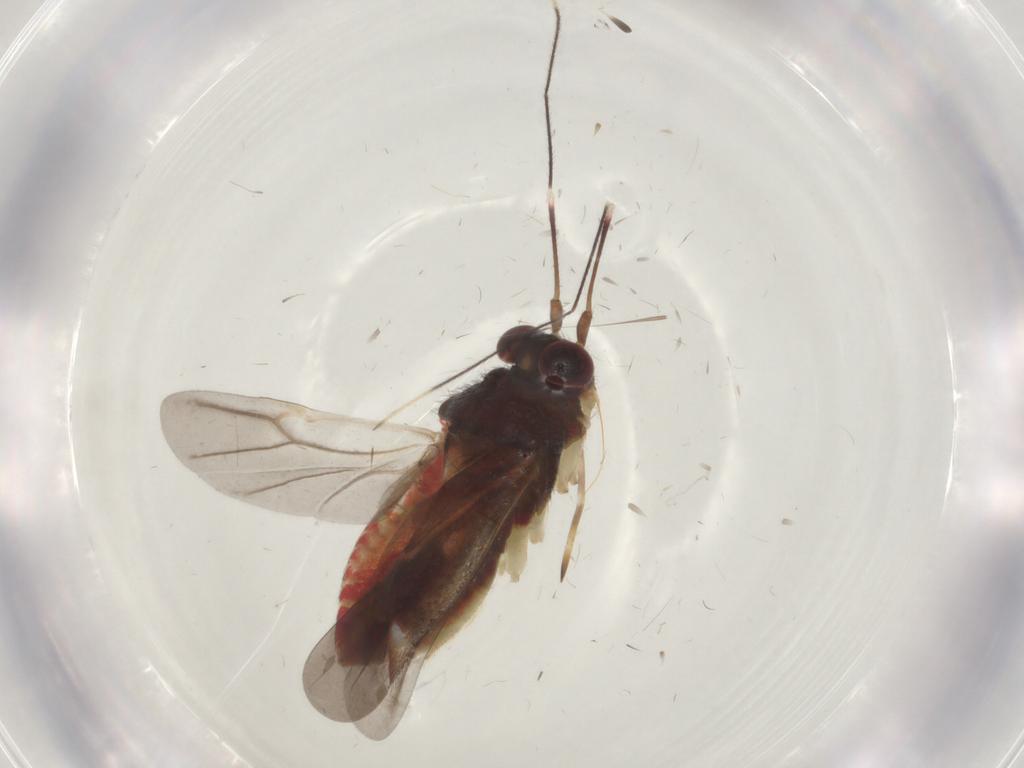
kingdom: Animalia
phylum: Arthropoda
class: Insecta
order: Hemiptera
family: Miridae
